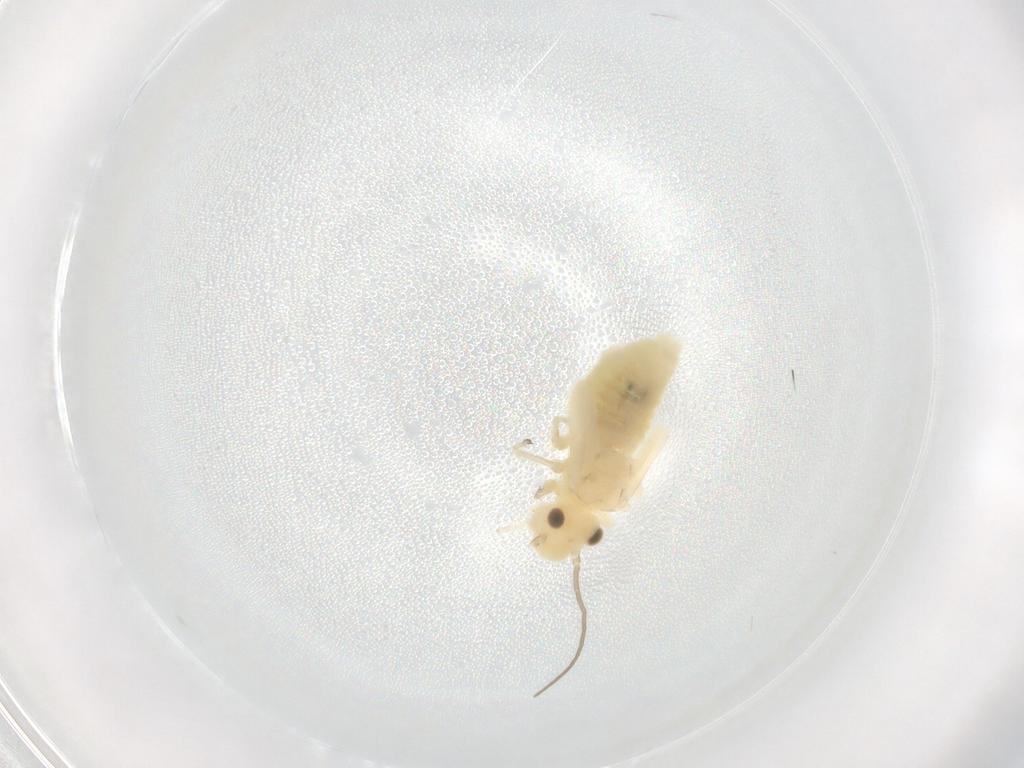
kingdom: Animalia
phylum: Arthropoda
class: Insecta
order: Psocodea
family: Caeciliusidae
